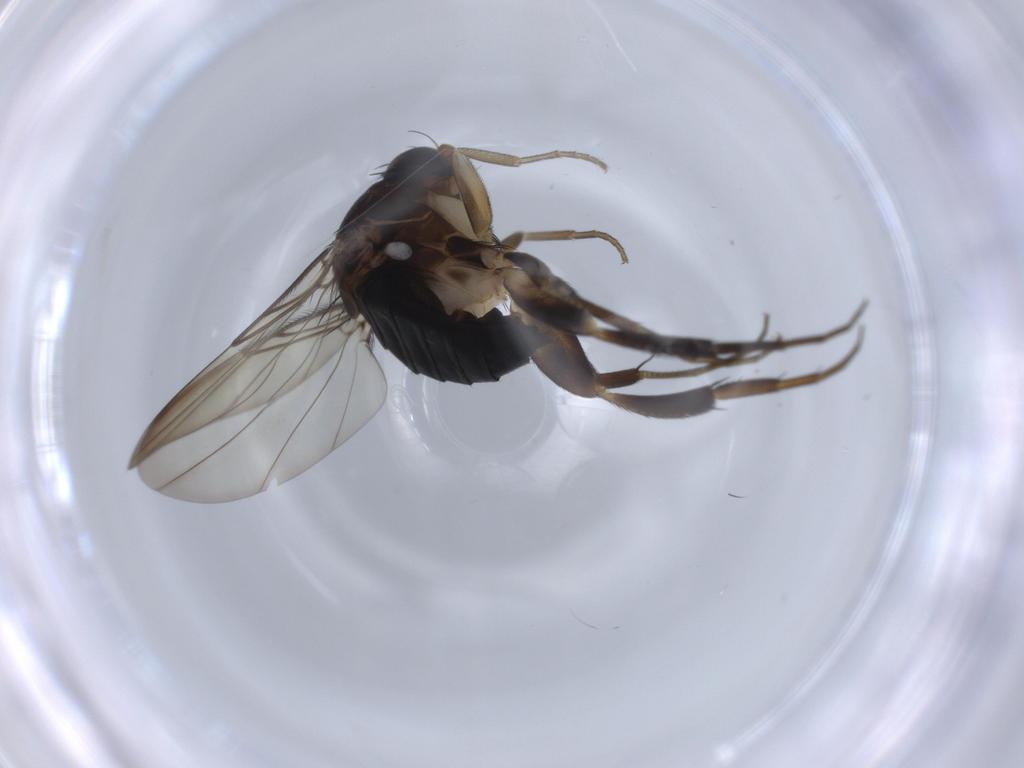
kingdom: Animalia
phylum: Arthropoda
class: Insecta
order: Diptera
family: Phoridae
